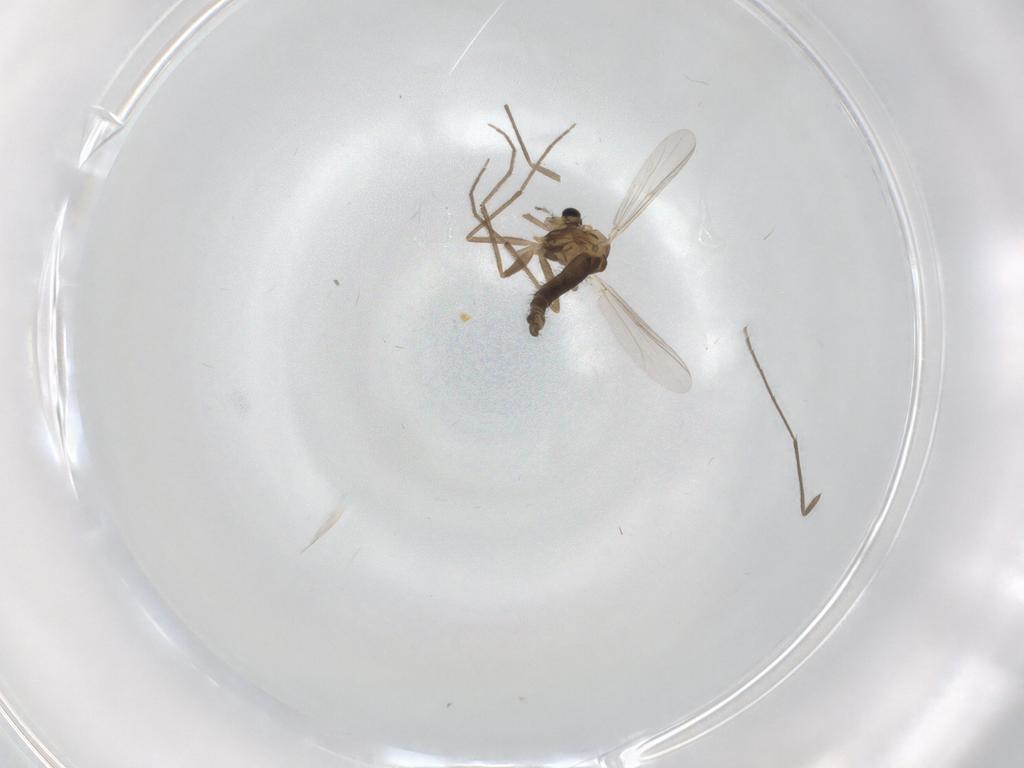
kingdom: Animalia
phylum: Arthropoda
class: Insecta
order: Diptera
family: Chironomidae
